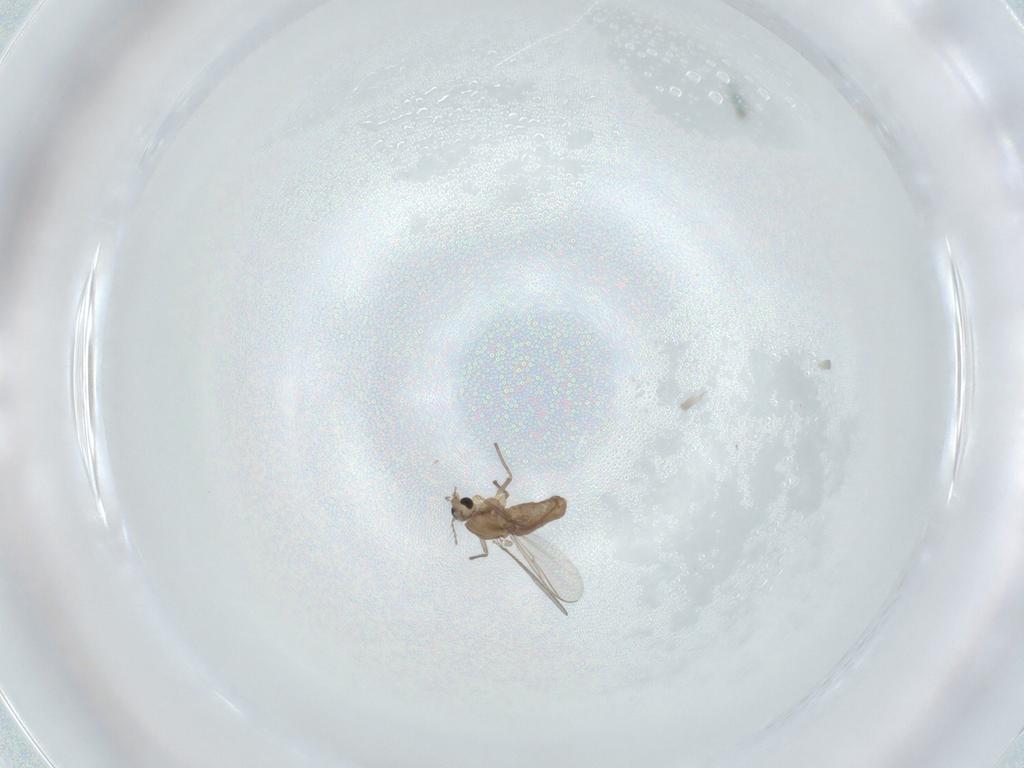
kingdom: Animalia
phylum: Arthropoda
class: Insecta
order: Diptera
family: Chironomidae
